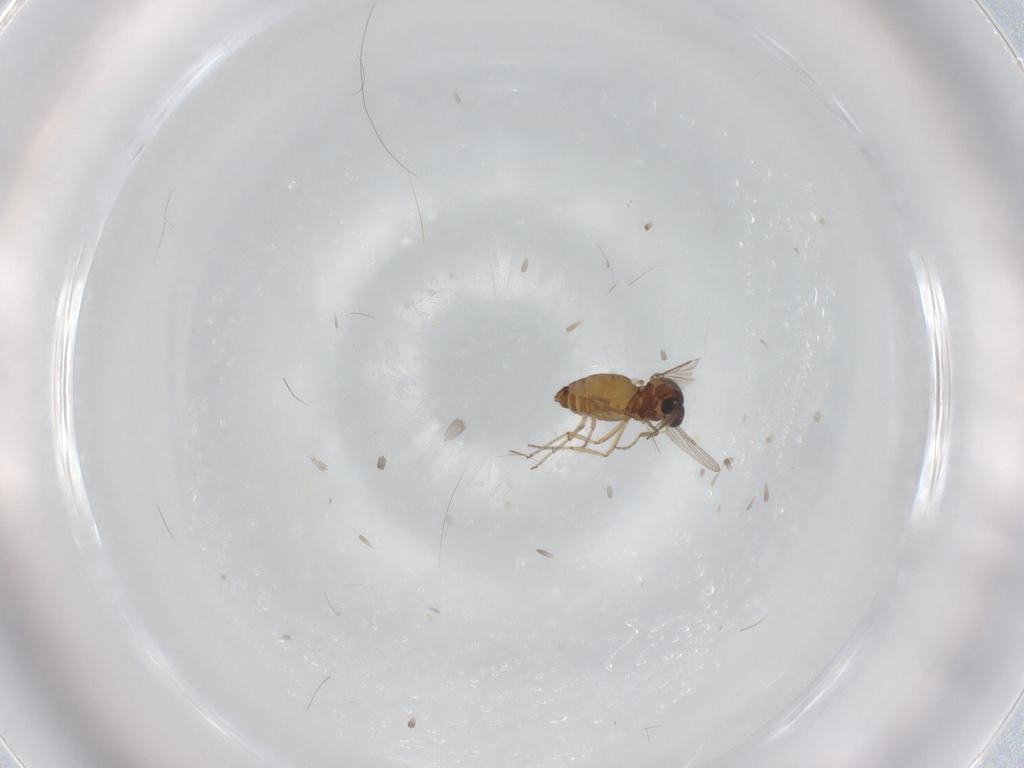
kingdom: Animalia
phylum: Arthropoda
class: Insecta
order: Diptera
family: Ceratopogonidae
